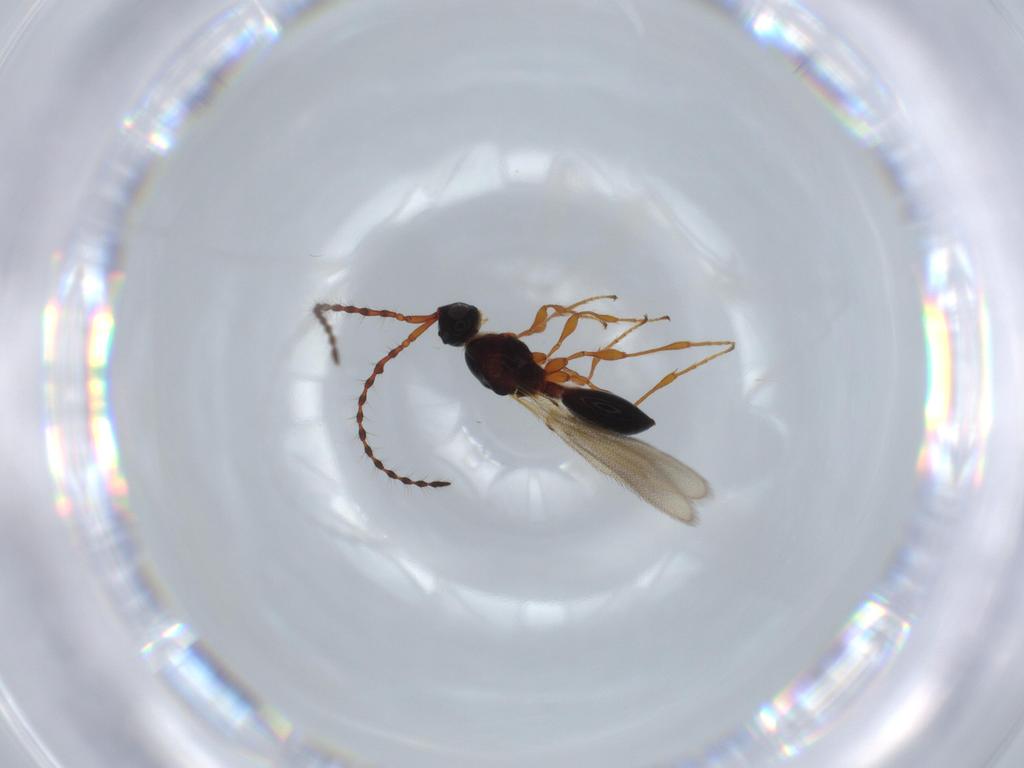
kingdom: Animalia
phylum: Arthropoda
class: Insecta
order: Hymenoptera
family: Diapriidae
